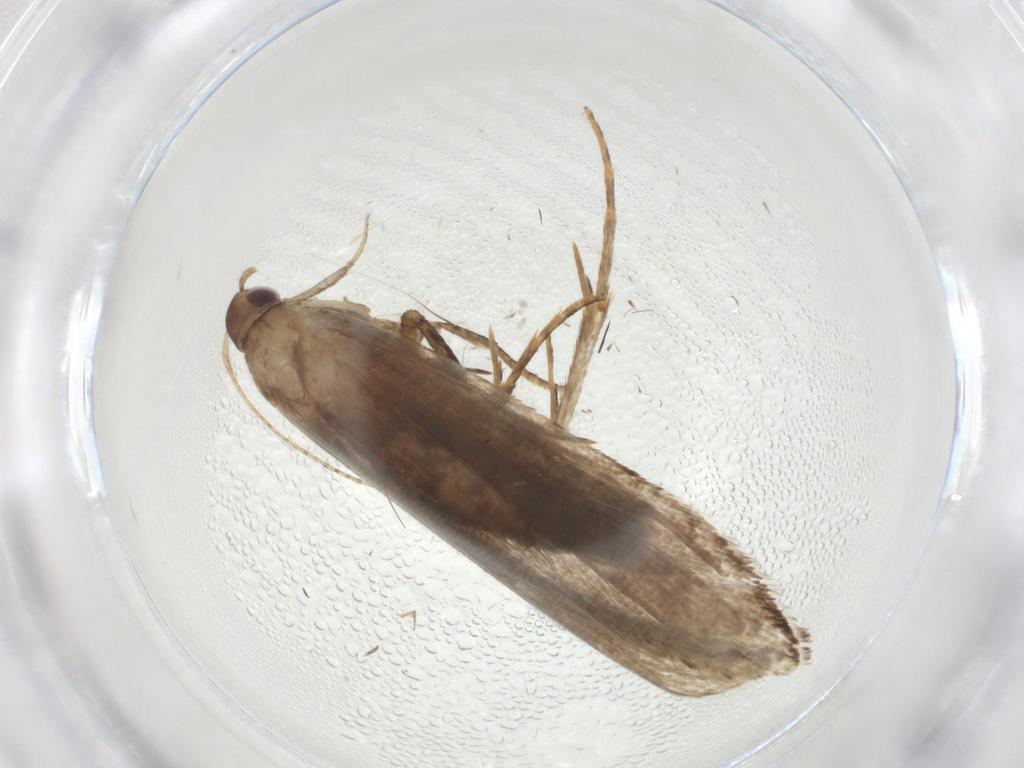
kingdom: Animalia
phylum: Arthropoda
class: Insecta
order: Lepidoptera
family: Tortricidae
